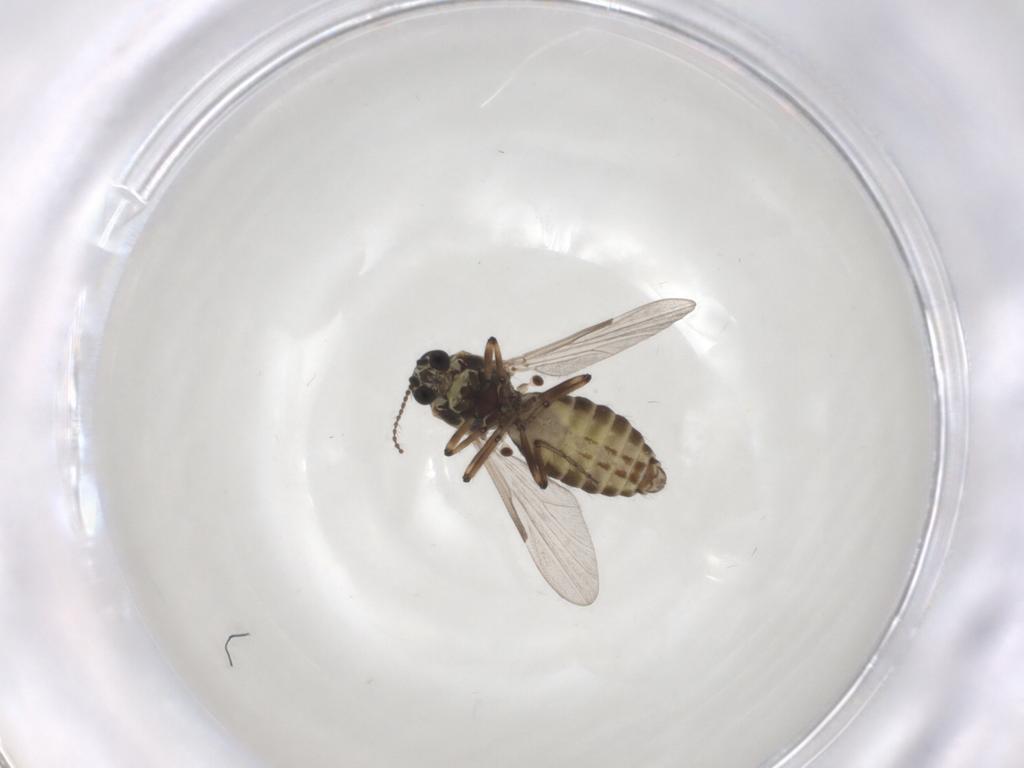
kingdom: Animalia
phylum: Arthropoda
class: Insecta
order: Diptera
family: Ceratopogonidae
